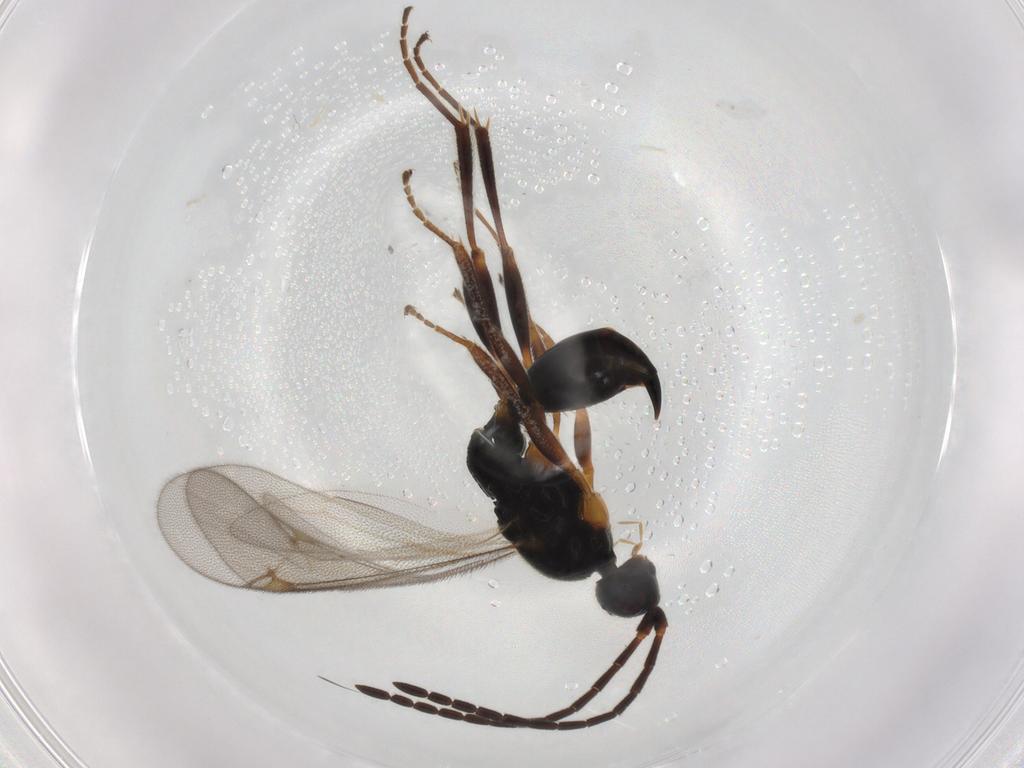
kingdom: Animalia
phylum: Arthropoda
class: Insecta
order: Hymenoptera
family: Proctotrupidae
